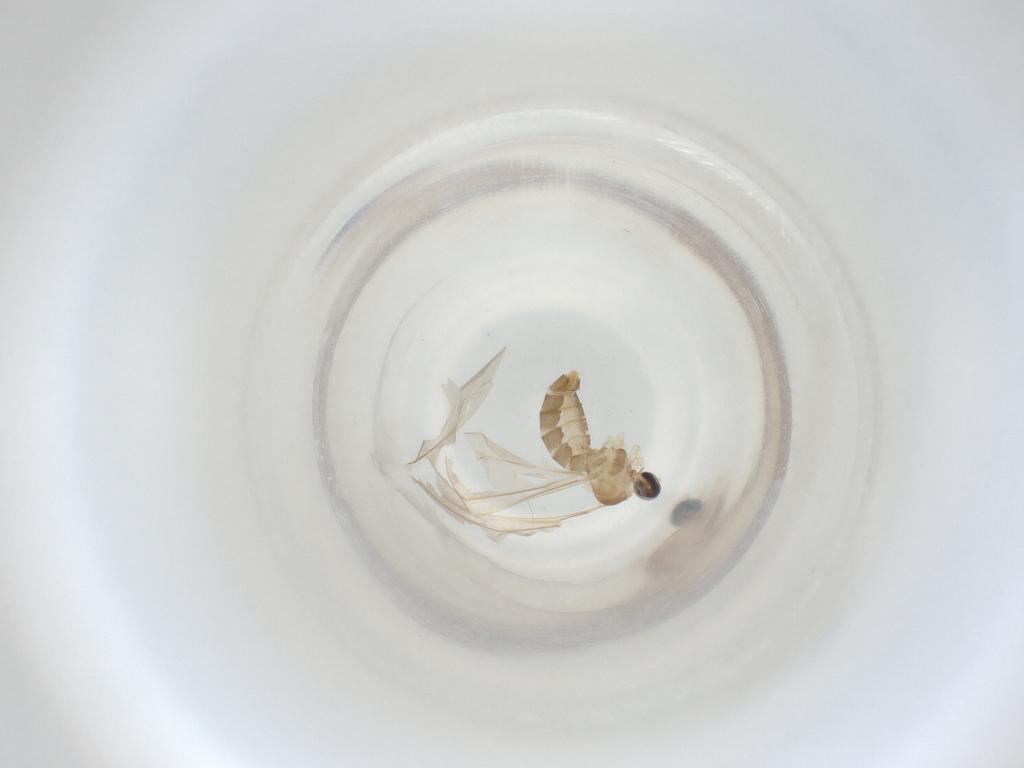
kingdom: Animalia
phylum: Arthropoda
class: Insecta
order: Diptera
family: Cecidomyiidae
